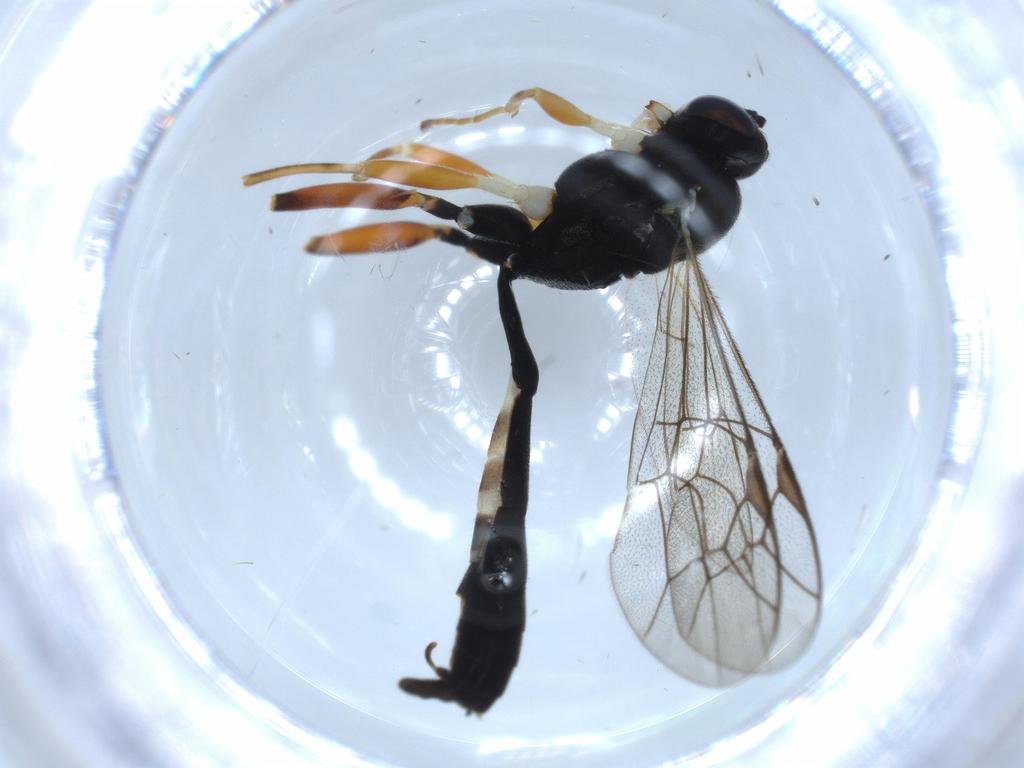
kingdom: Animalia
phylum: Arthropoda
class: Insecta
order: Hymenoptera
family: Ichneumonidae
